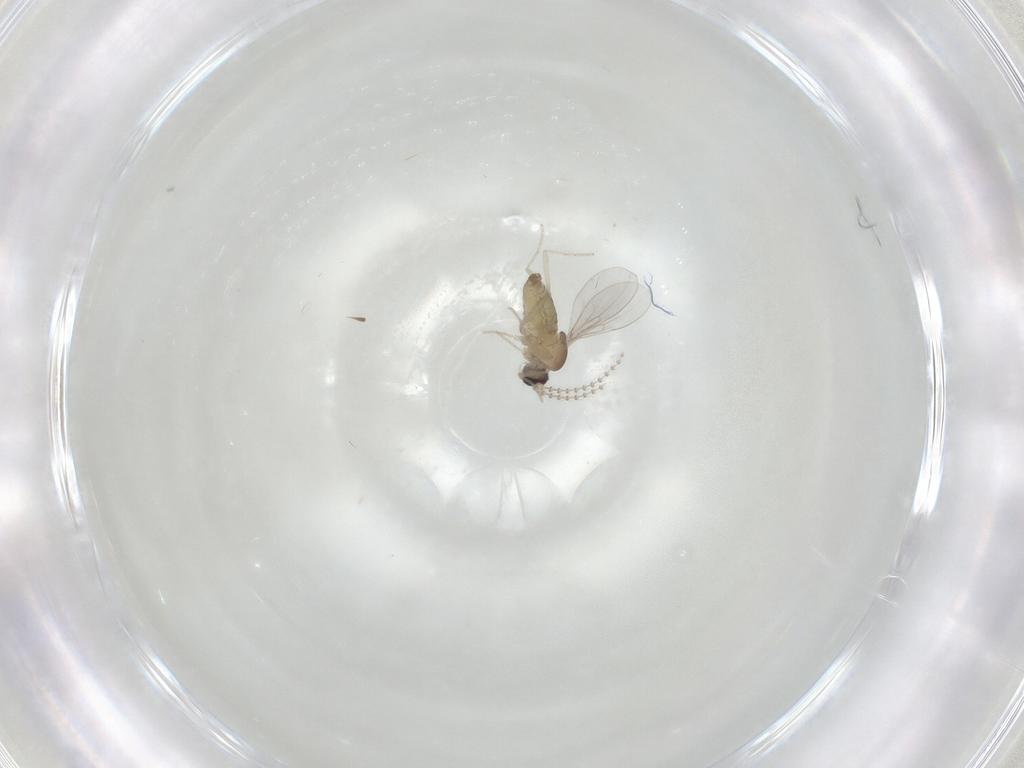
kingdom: Animalia
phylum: Arthropoda
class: Insecta
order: Diptera
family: Cecidomyiidae
